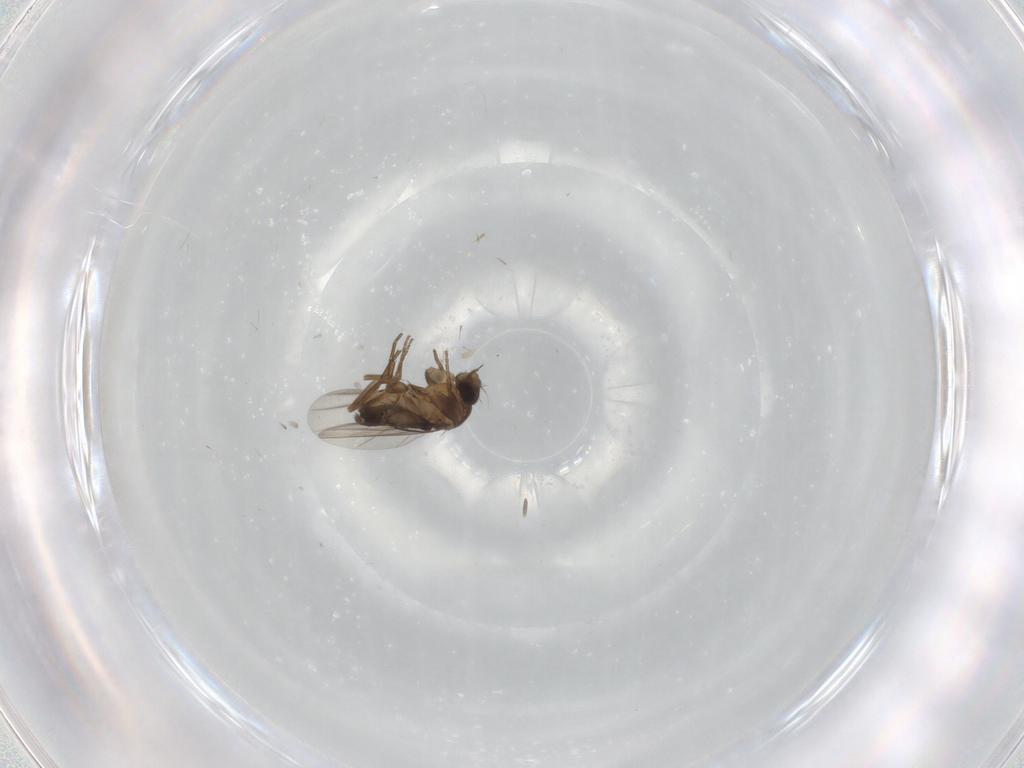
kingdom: Animalia
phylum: Arthropoda
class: Insecta
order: Diptera
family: Phoridae
